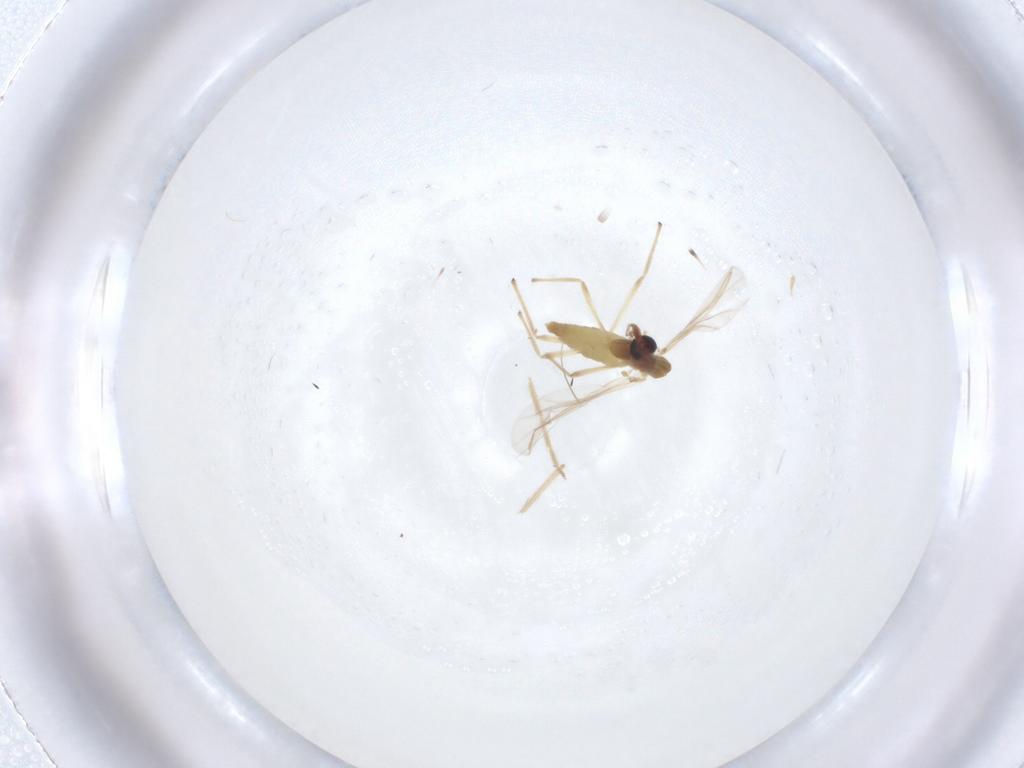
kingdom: Animalia
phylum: Arthropoda
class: Insecta
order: Diptera
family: Chironomidae
